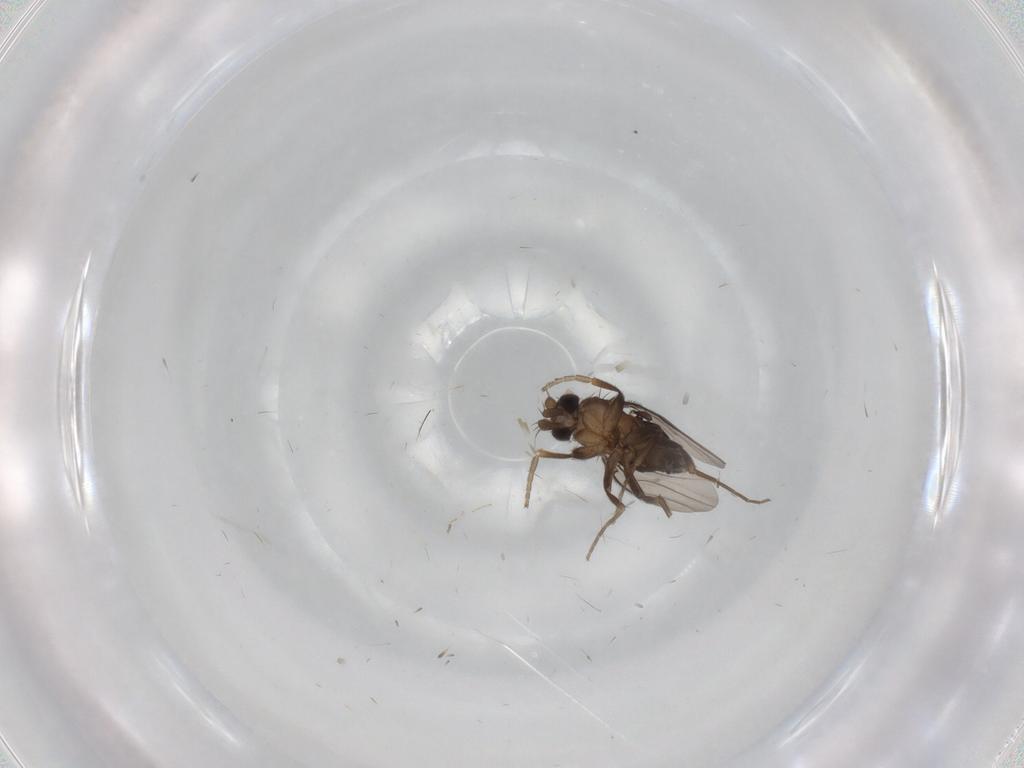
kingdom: Animalia
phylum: Arthropoda
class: Insecta
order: Diptera
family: Phoridae
